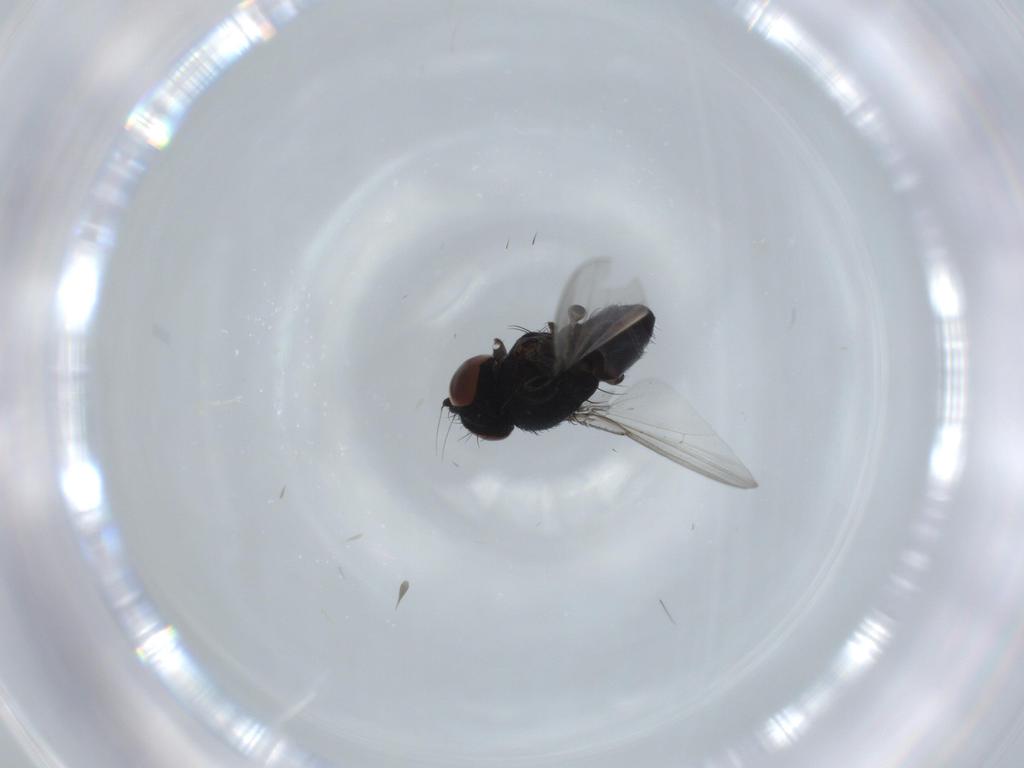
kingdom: Animalia
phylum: Arthropoda
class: Insecta
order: Diptera
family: Milichiidae
